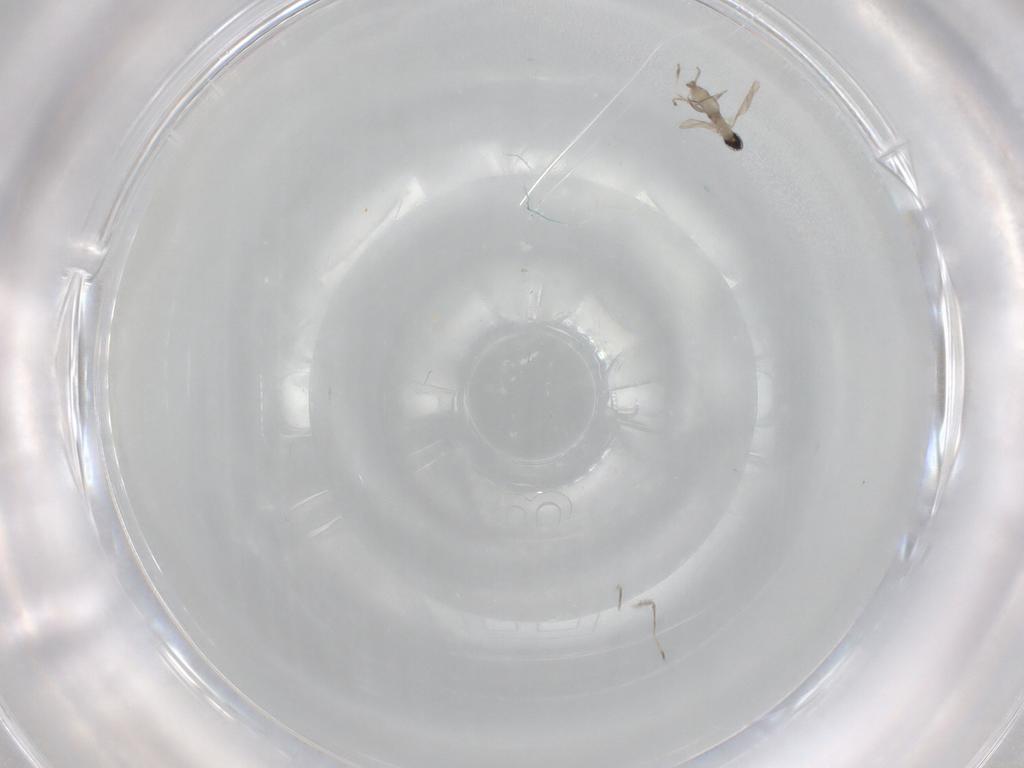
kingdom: Animalia
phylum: Arthropoda
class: Insecta
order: Diptera
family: Cecidomyiidae
